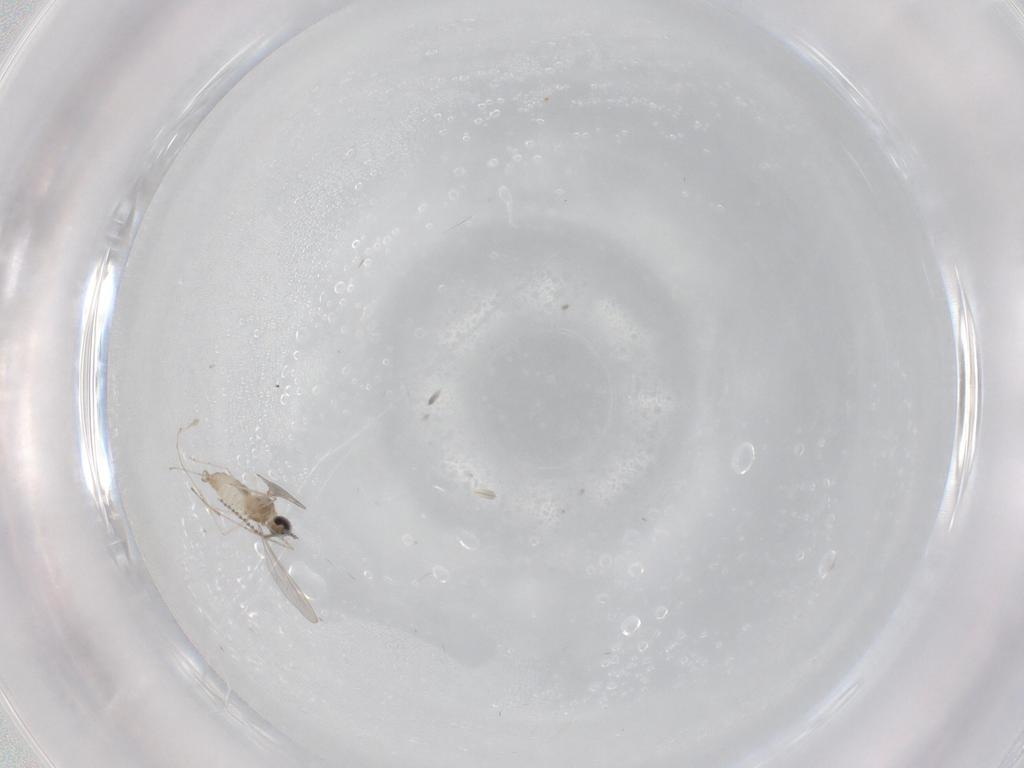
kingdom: Animalia
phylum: Arthropoda
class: Insecta
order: Diptera
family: Cecidomyiidae
